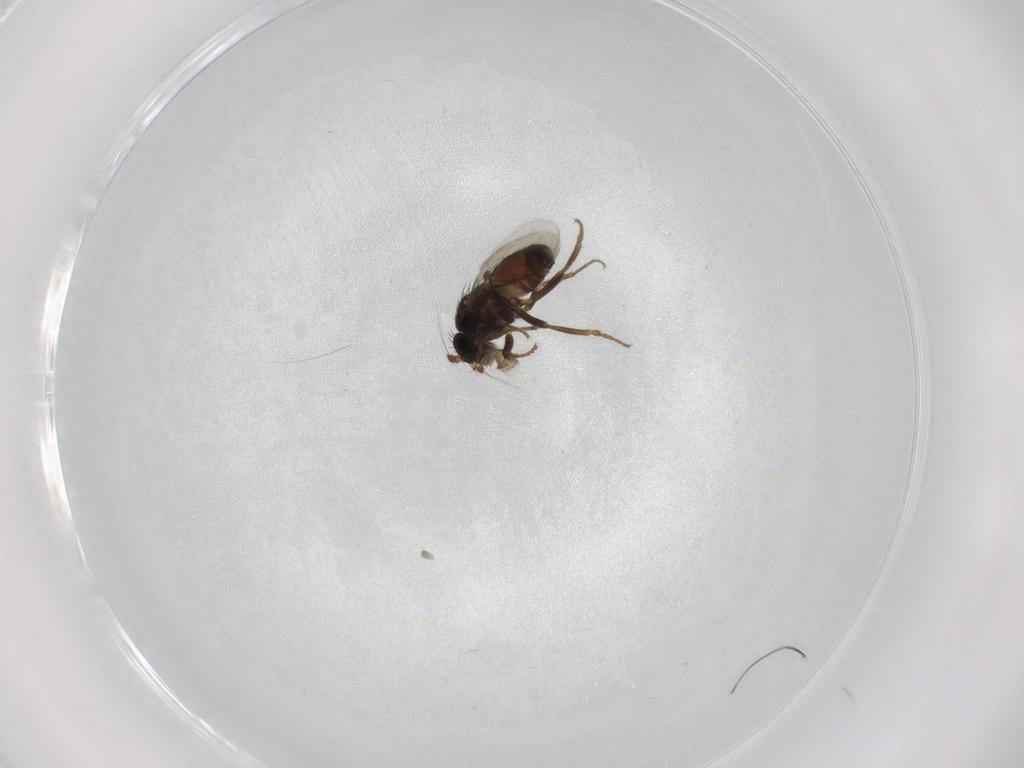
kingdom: Animalia
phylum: Arthropoda
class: Insecta
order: Diptera
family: Sphaeroceridae
